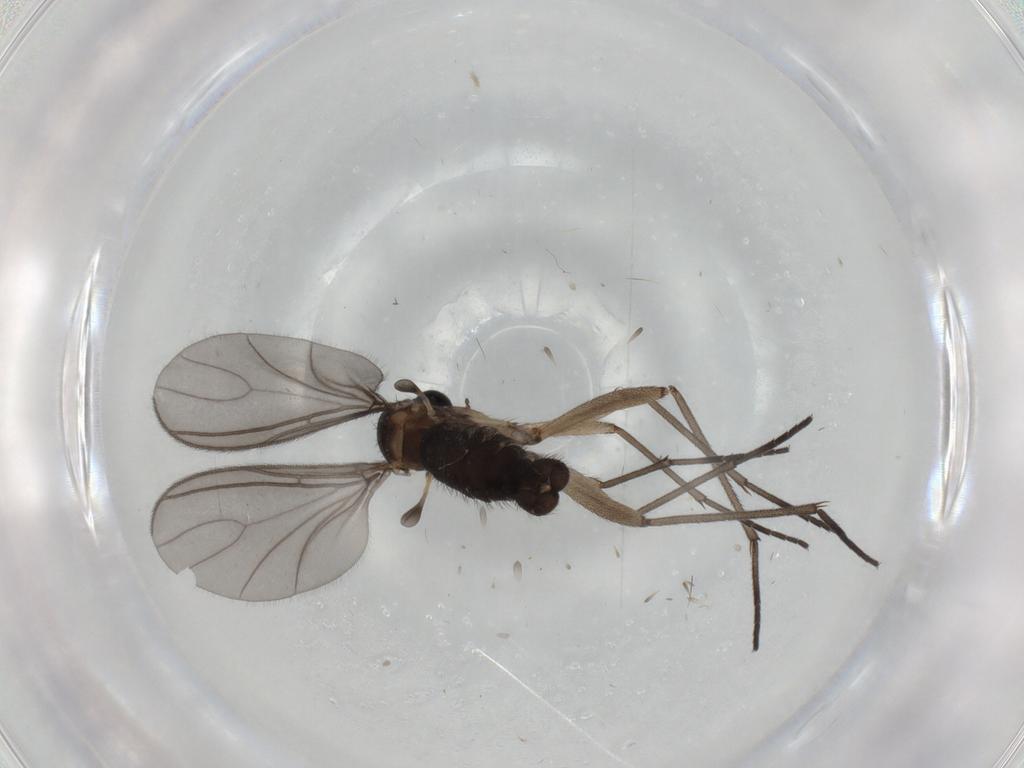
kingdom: Animalia
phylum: Arthropoda
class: Insecta
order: Diptera
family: Sciaridae
